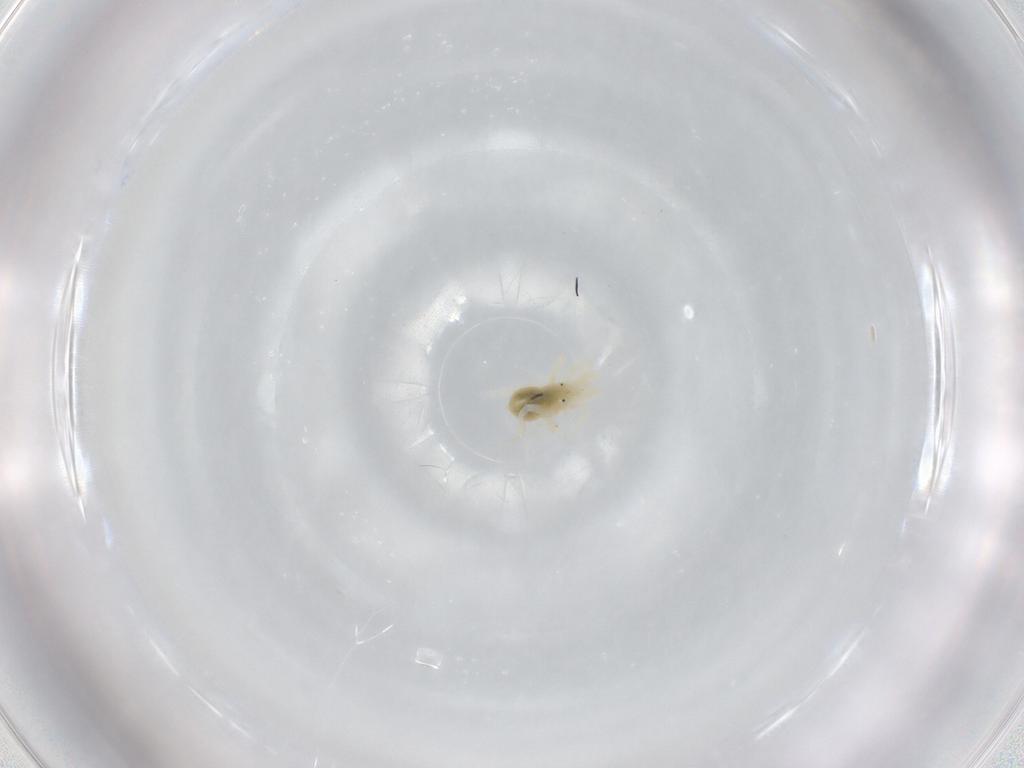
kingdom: Animalia
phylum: Arthropoda
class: Arachnida
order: Trombidiformes
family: Anystidae
